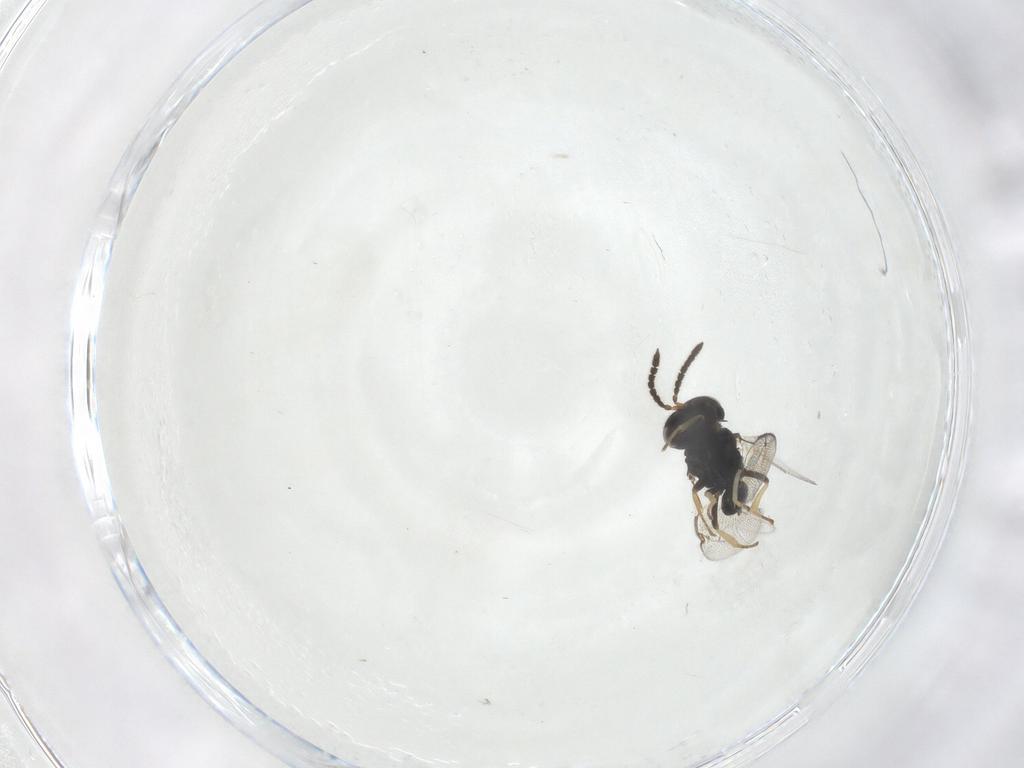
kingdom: Animalia
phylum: Arthropoda
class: Insecta
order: Hymenoptera
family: Pteromalidae
